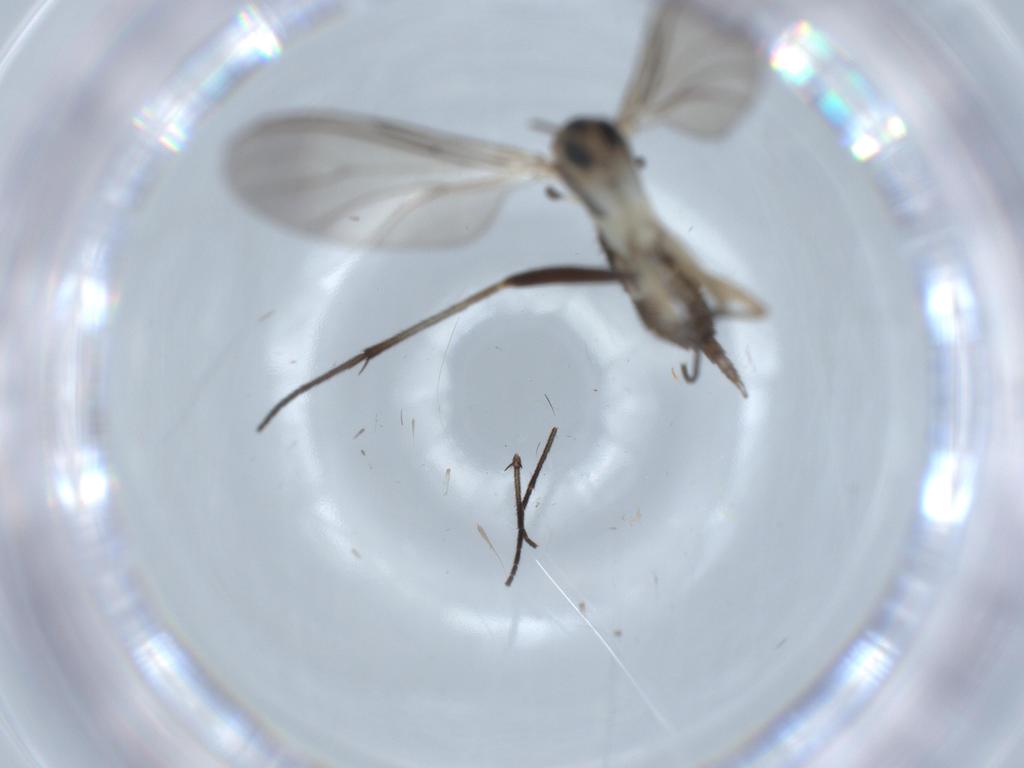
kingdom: Animalia
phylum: Arthropoda
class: Insecta
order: Diptera
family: Sciaridae
